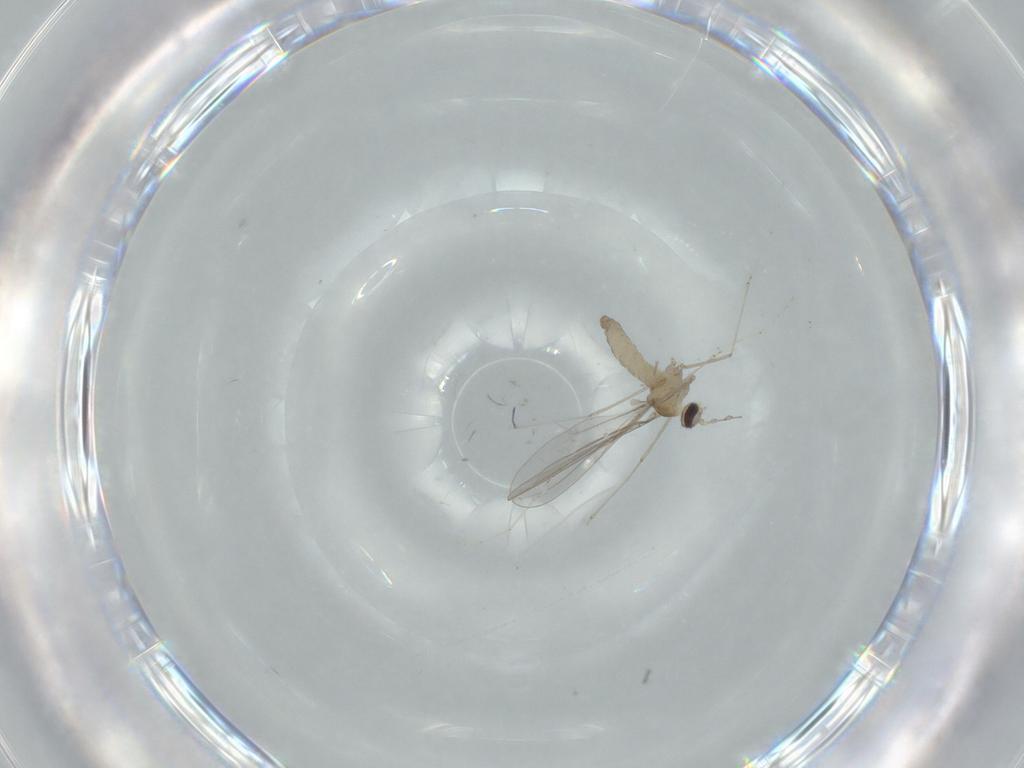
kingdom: Animalia
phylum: Arthropoda
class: Insecta
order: Diptera
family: Cecidomyiidae
